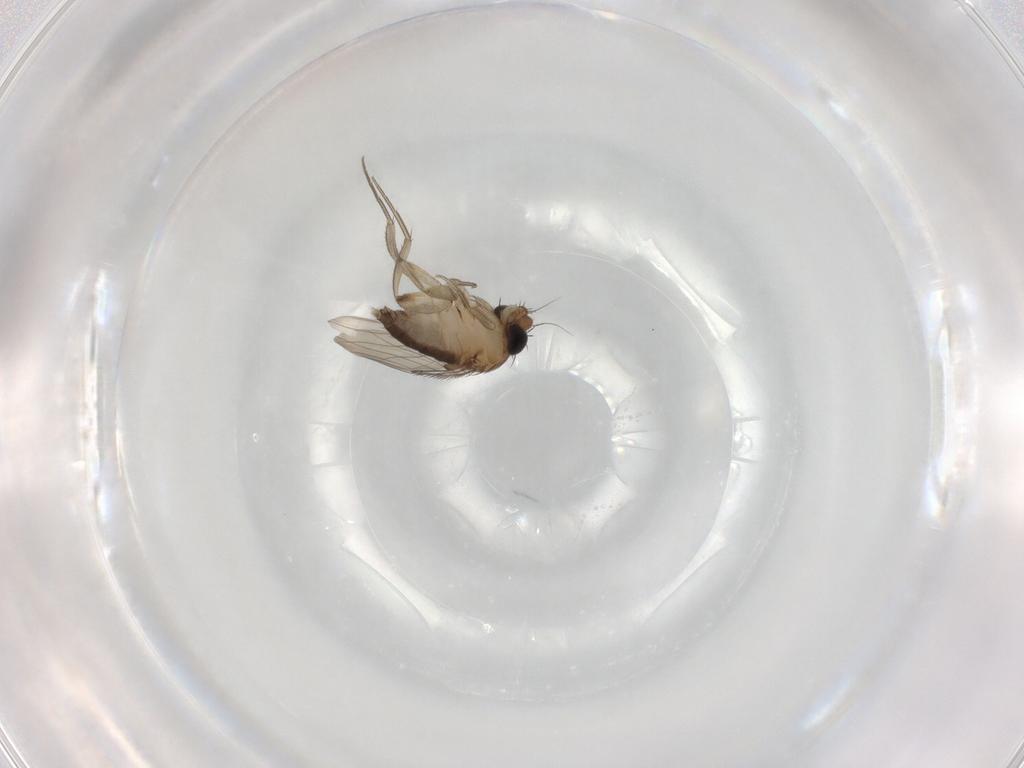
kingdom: Animalia
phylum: Arthropoda
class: Insecta
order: Diptera
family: Phoridae
